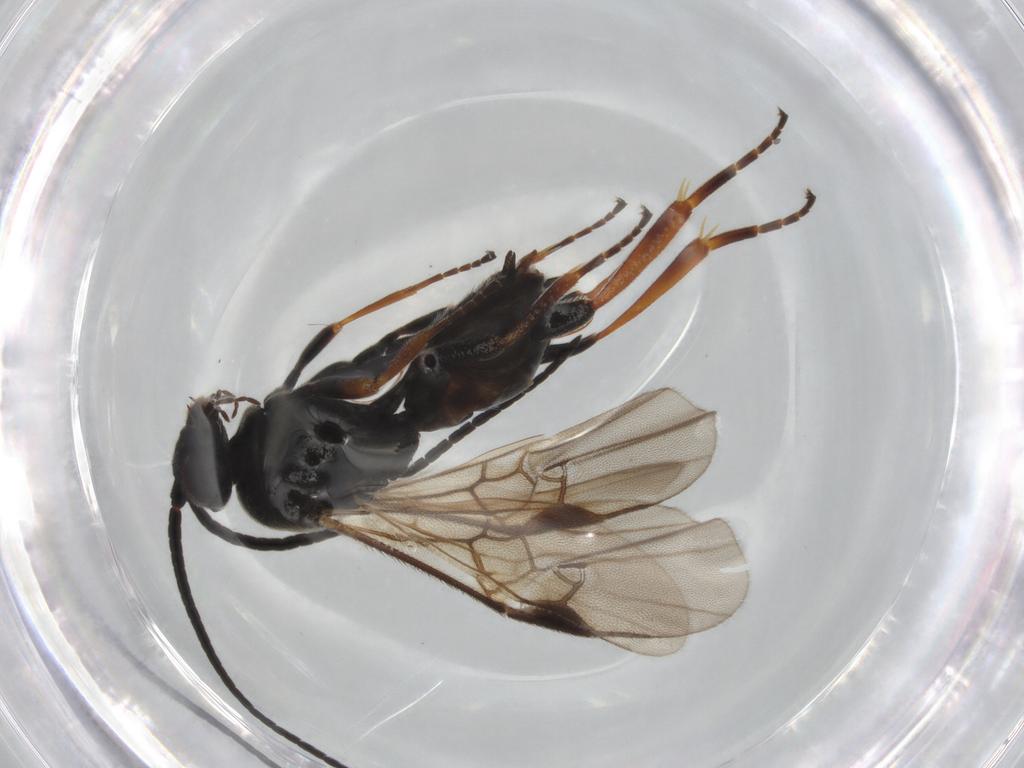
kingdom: Animalia
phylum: Arthropoda
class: Insecta
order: Hymenoptera
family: Braconidae
